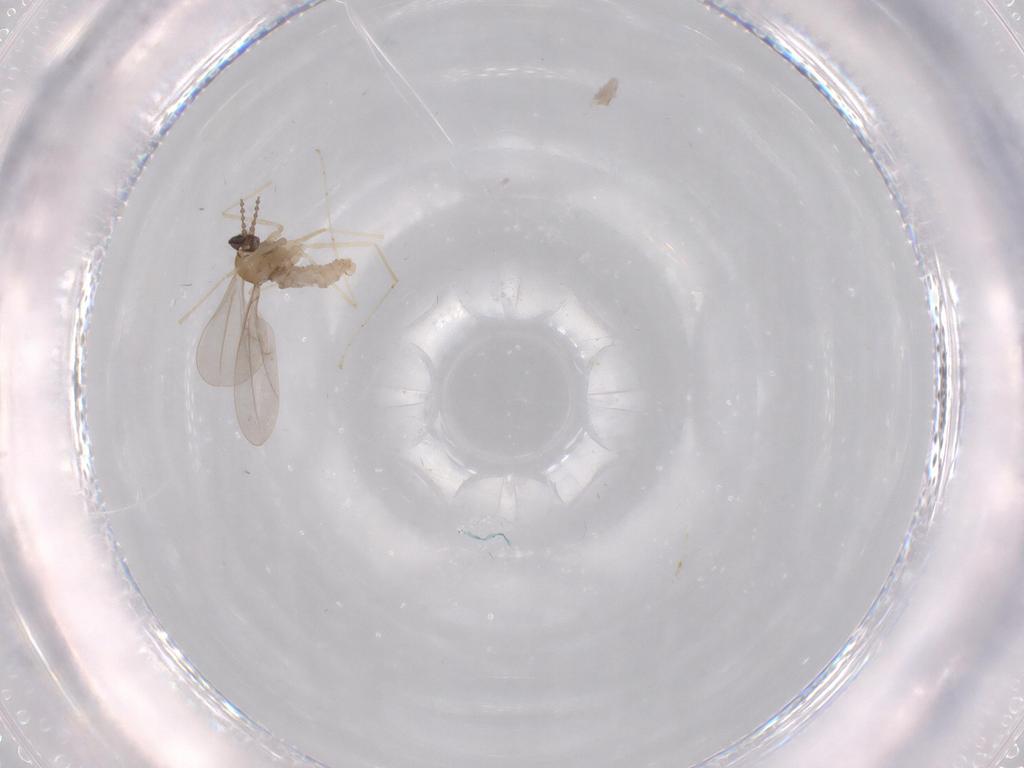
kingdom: Animalia
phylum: Arthropoda
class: Insecta
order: Diptera
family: Cecidomyiidae
